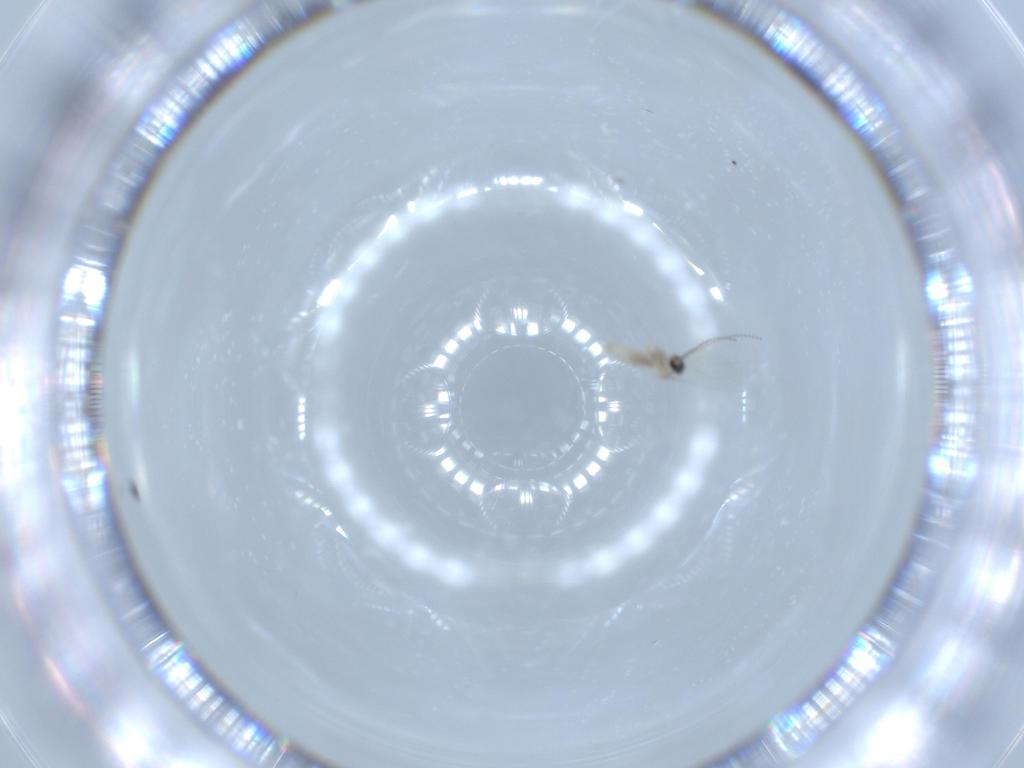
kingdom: Animalia
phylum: Arthropoda
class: Insecta
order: Diptera
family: Cecidomyiidae
